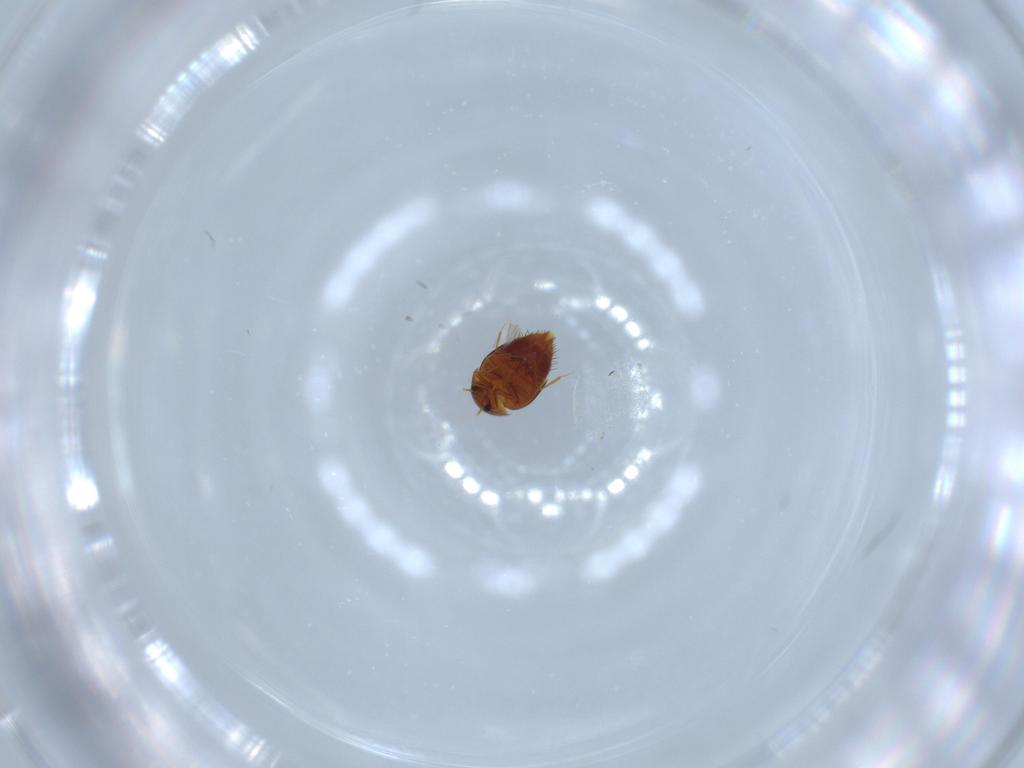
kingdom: Animalia
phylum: Arthropoda
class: Insecta
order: Coleoptera
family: Staphylinidae
